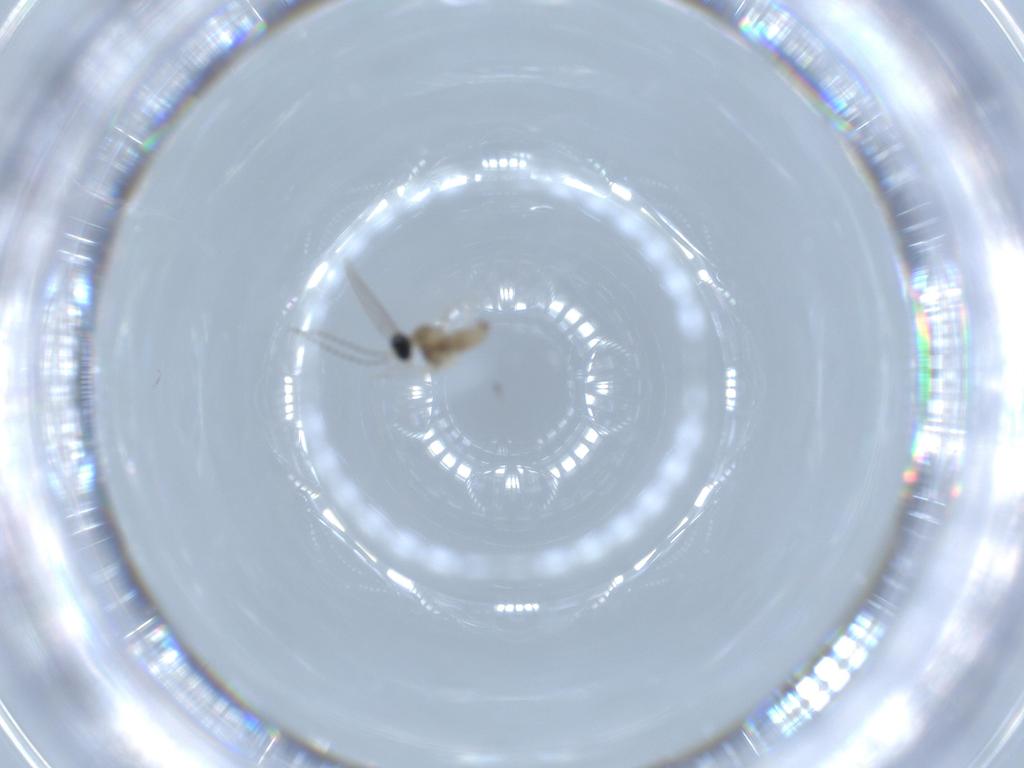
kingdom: Animalia
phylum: Arthropoda
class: Insecta
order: Diptera
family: Cecidomyiidae
